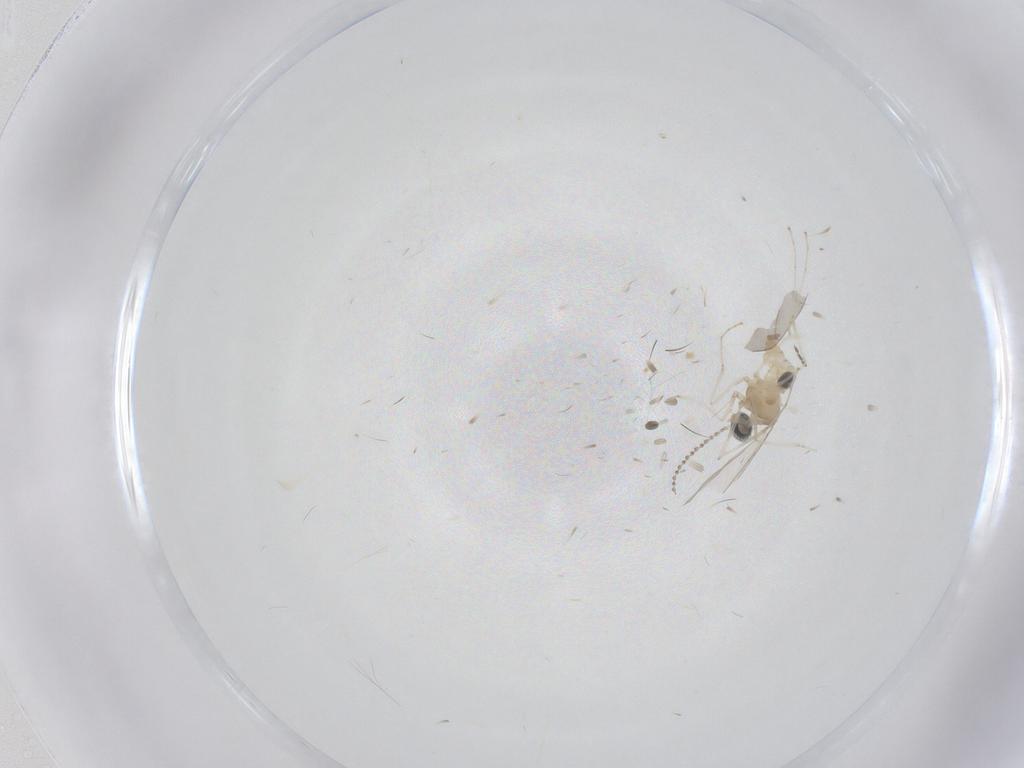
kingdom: Animalia
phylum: Arthropoda
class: Insecta
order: Diptera
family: Cecidomyiidae
